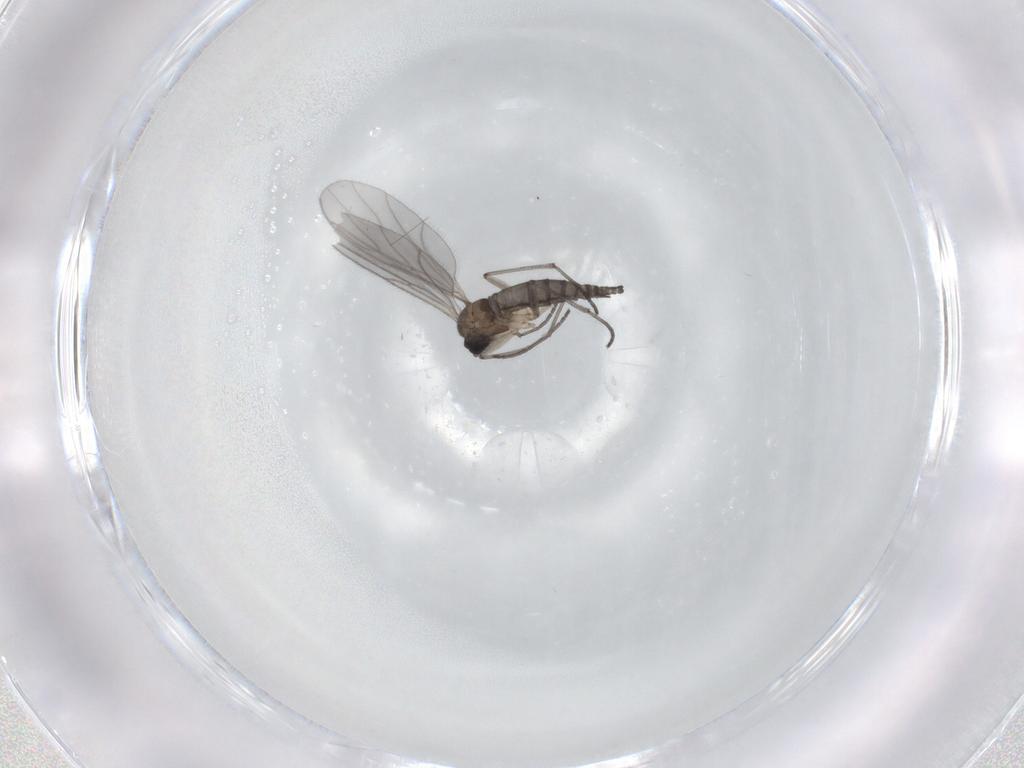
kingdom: Animalia
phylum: Arthropoda
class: Insecta
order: Diptera
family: Sciaridae
